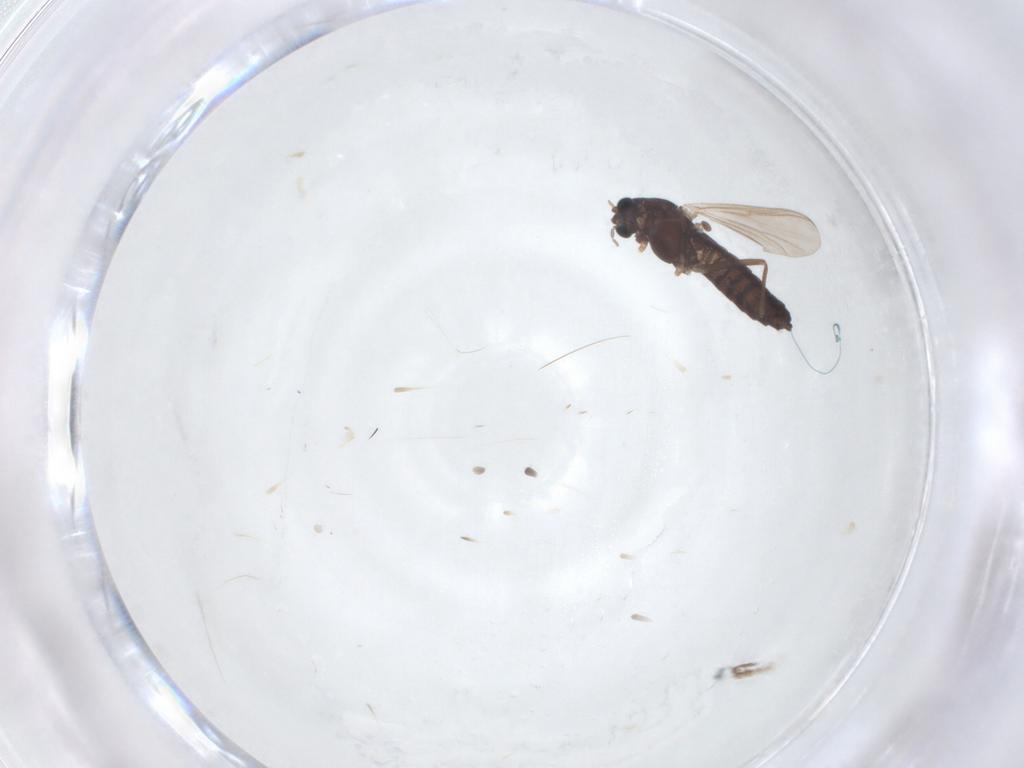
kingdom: Animalia
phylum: Arthropoda
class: Insecta
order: Diptera
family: Chironomidae
